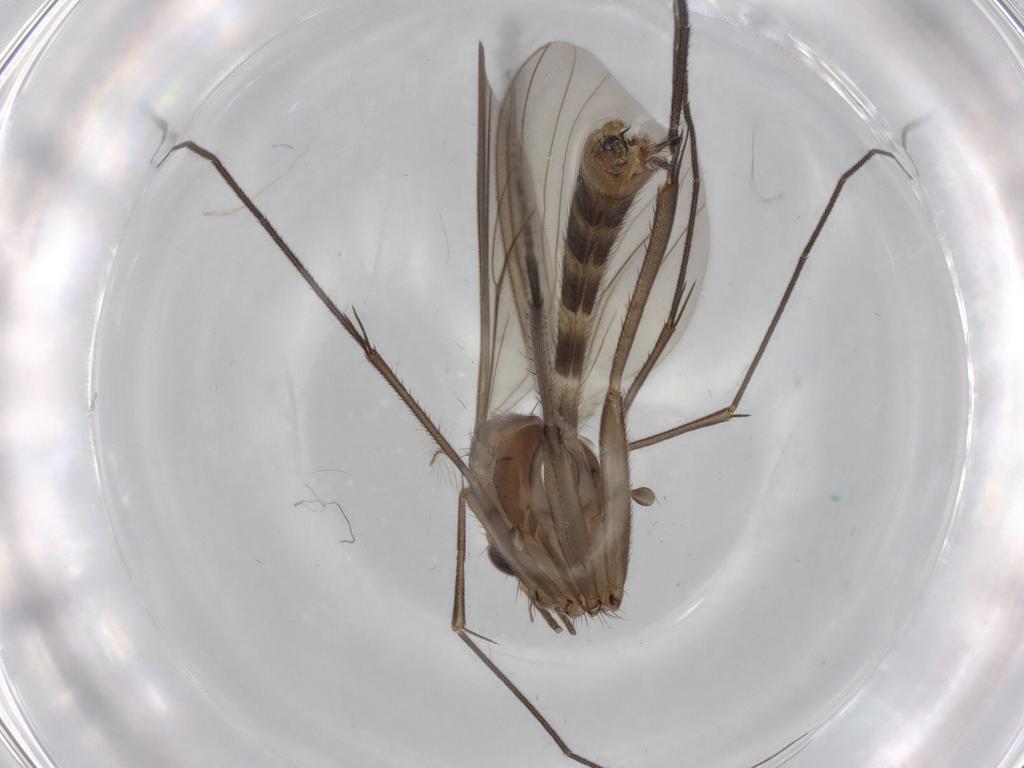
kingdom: Animalia
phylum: Arthropoda
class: Insecta
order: Diptera
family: Mycetophilidae
